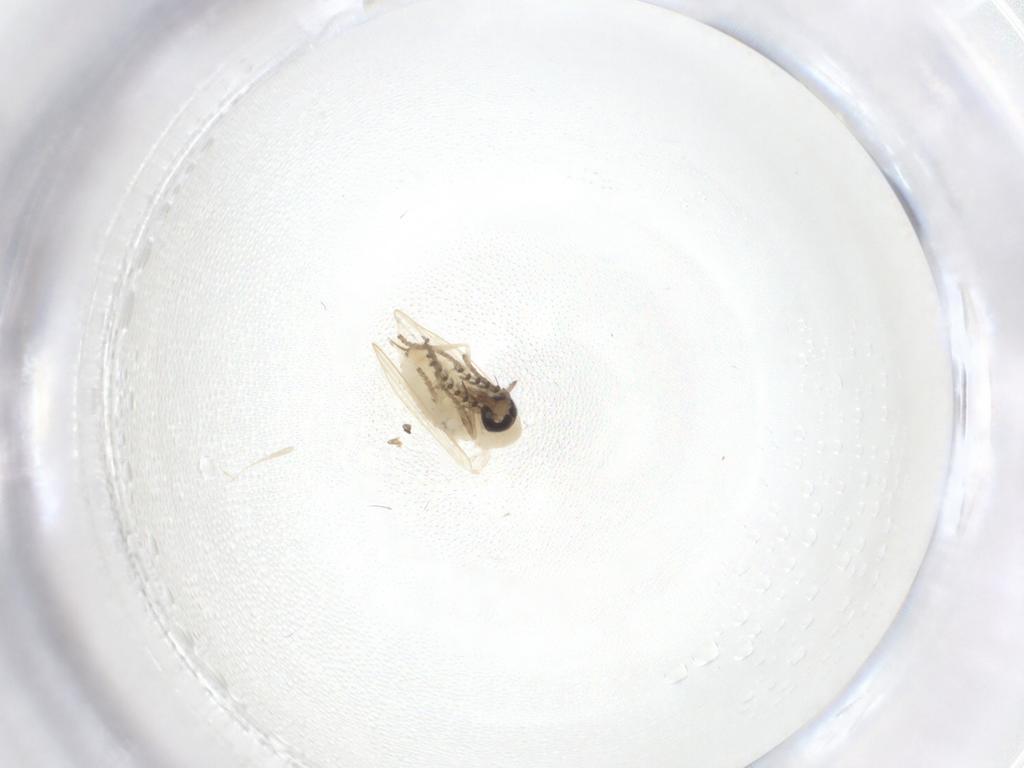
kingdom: Animalia
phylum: Arthropoda
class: Insecta
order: Diptera
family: Psychodidae
